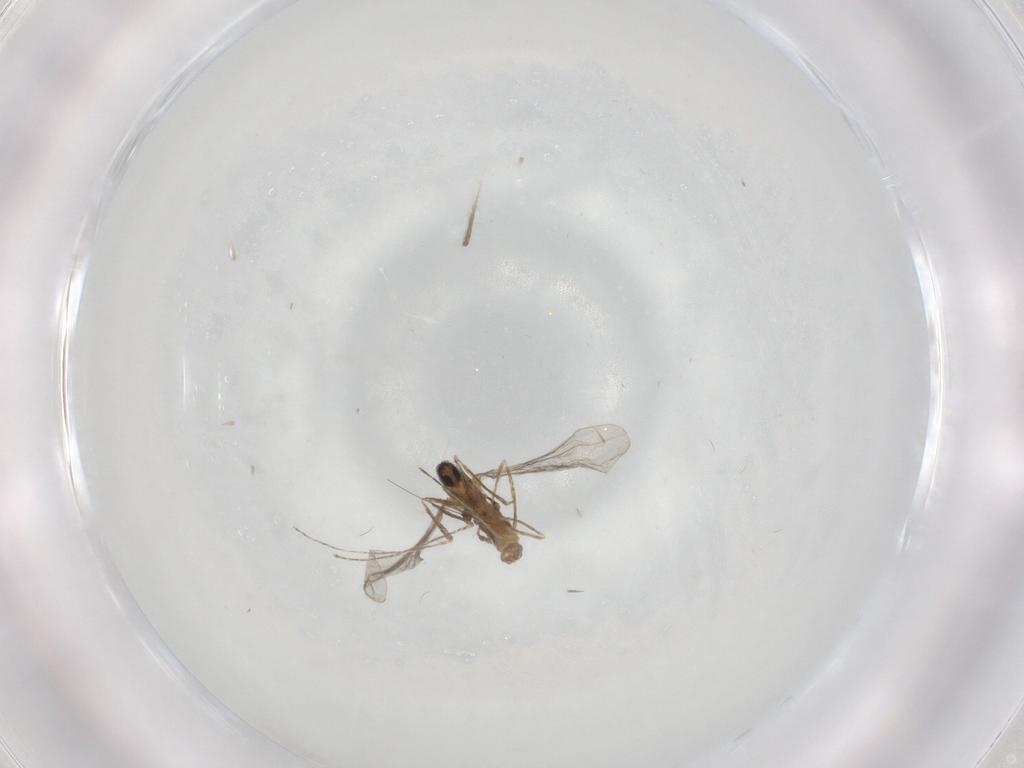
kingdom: Animalia
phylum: Arthropoda
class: Insecta
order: Diptera
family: Cecidomyiidae
